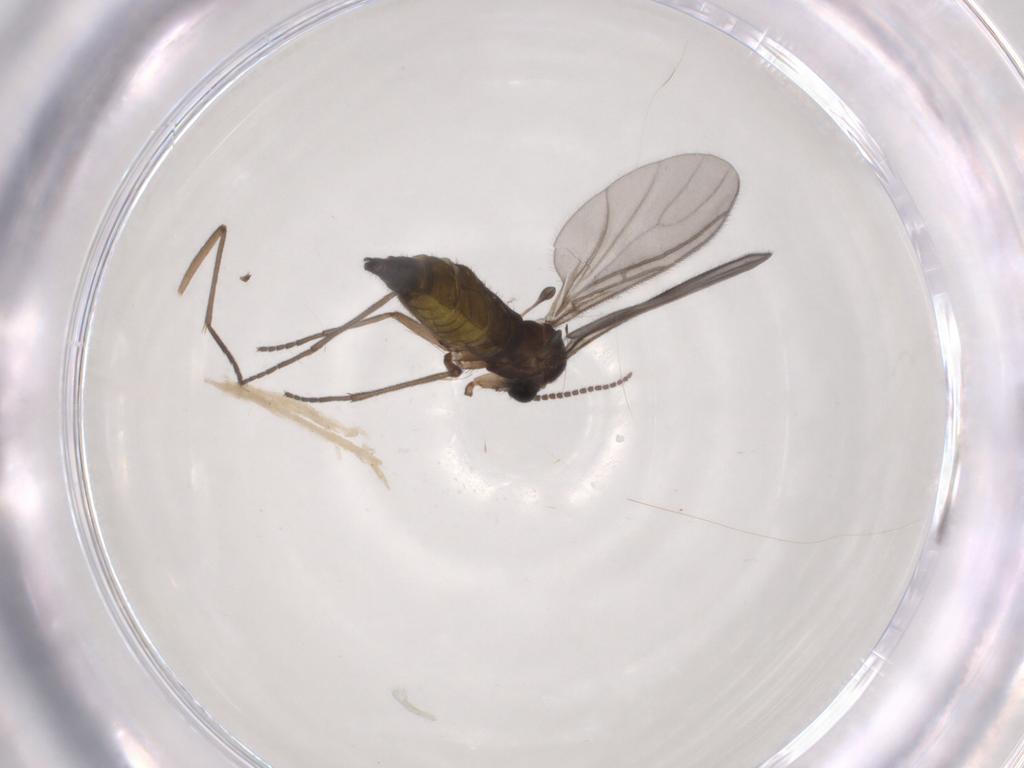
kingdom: Animalia
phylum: Arthropoda
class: Insecta
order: Diptera
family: Sciaridae
